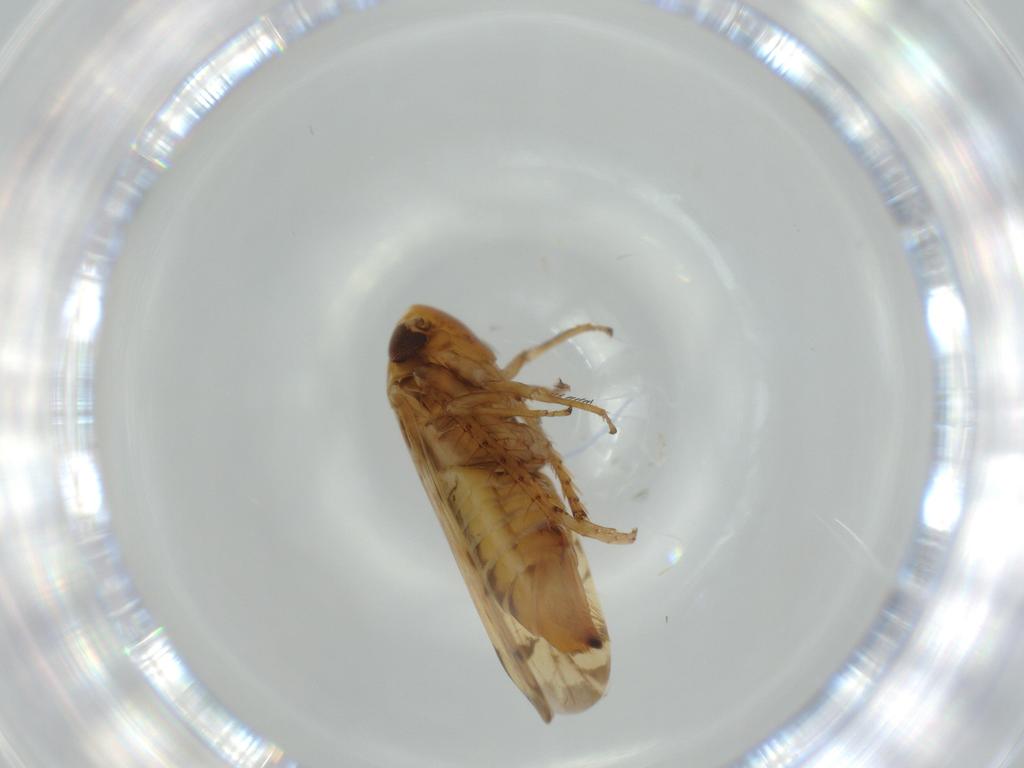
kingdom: Animalia
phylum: Arthropoda
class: Insecta
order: Hemiptera
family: Cicadellidae
